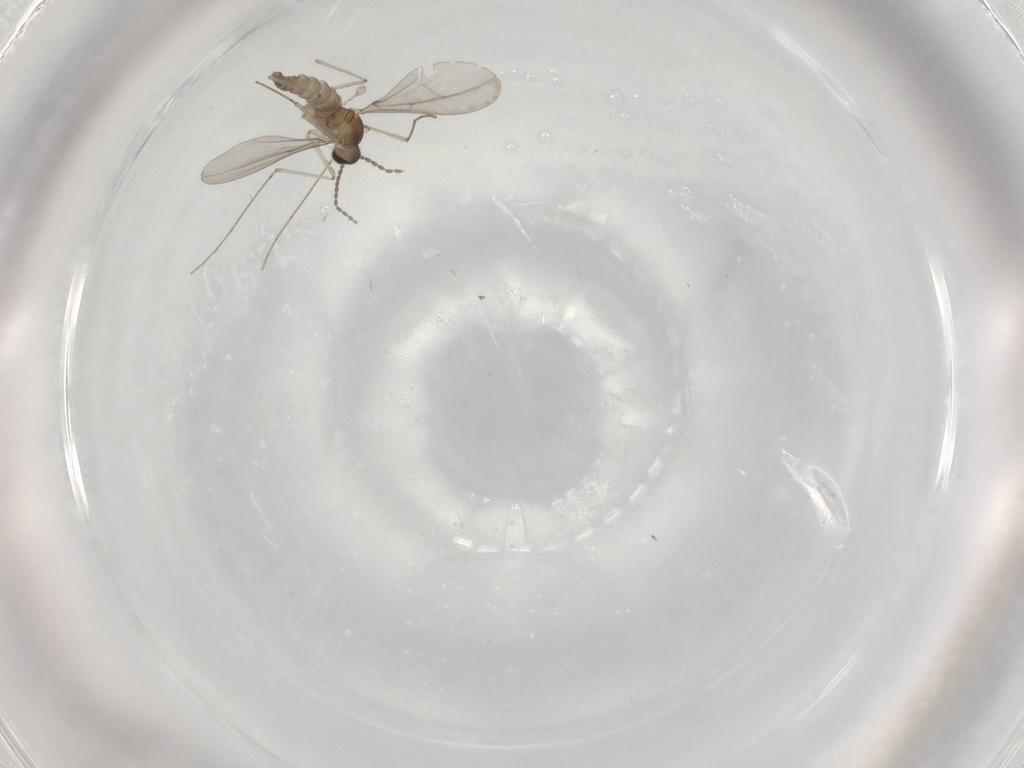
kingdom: Animalia
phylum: Arthropoda
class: Insecta
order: Diptera
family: Cecidomyiidae
